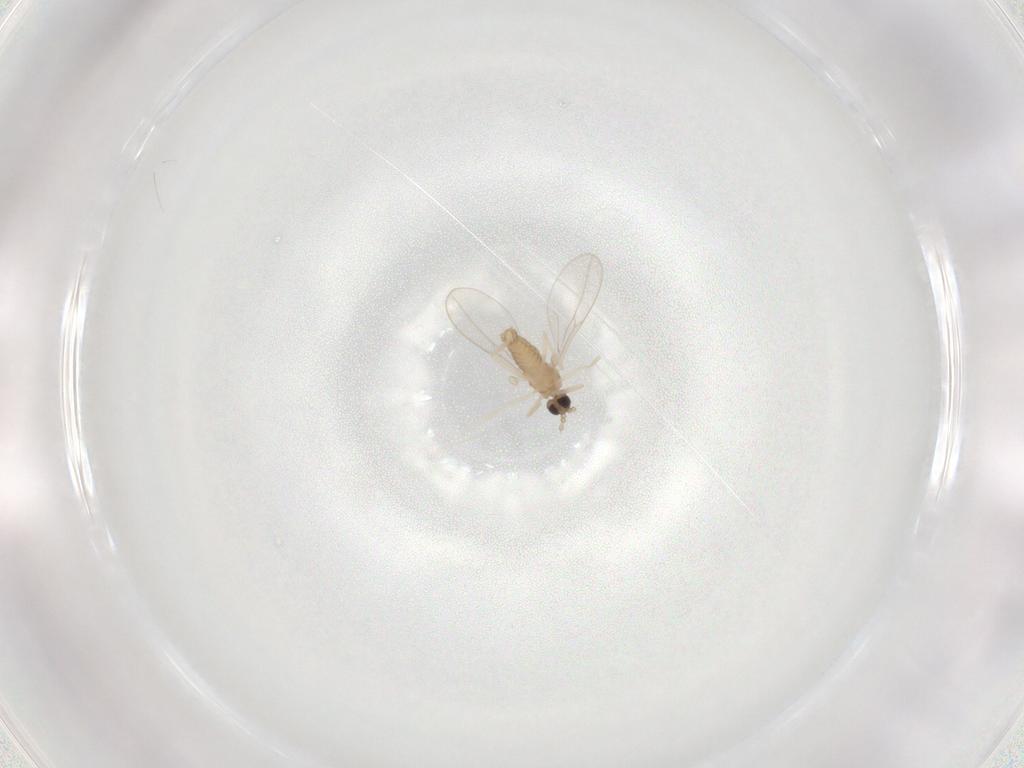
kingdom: Animalia
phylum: Arthropoda
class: Insecta
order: Diptera
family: Cecidomyiidae
